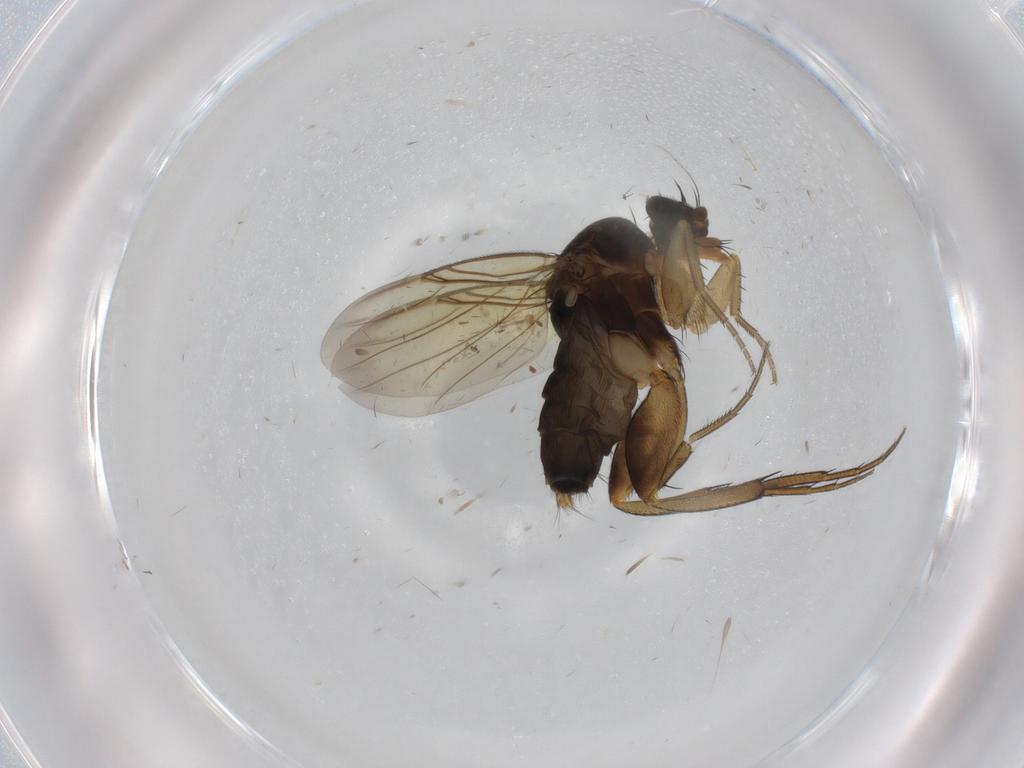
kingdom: Animalia
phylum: Arthropoda
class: Insecta
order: Diptera
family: Phoridae
